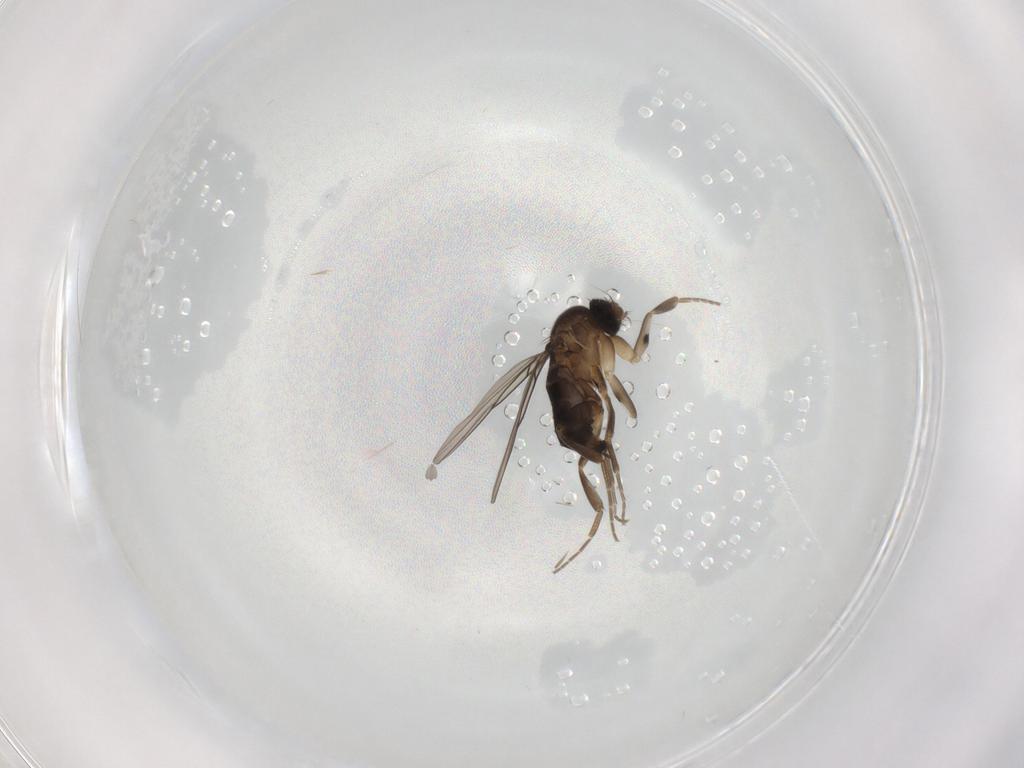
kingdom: Animalia
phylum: Arthropoda
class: Insecta
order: Diptera
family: Phoridae
